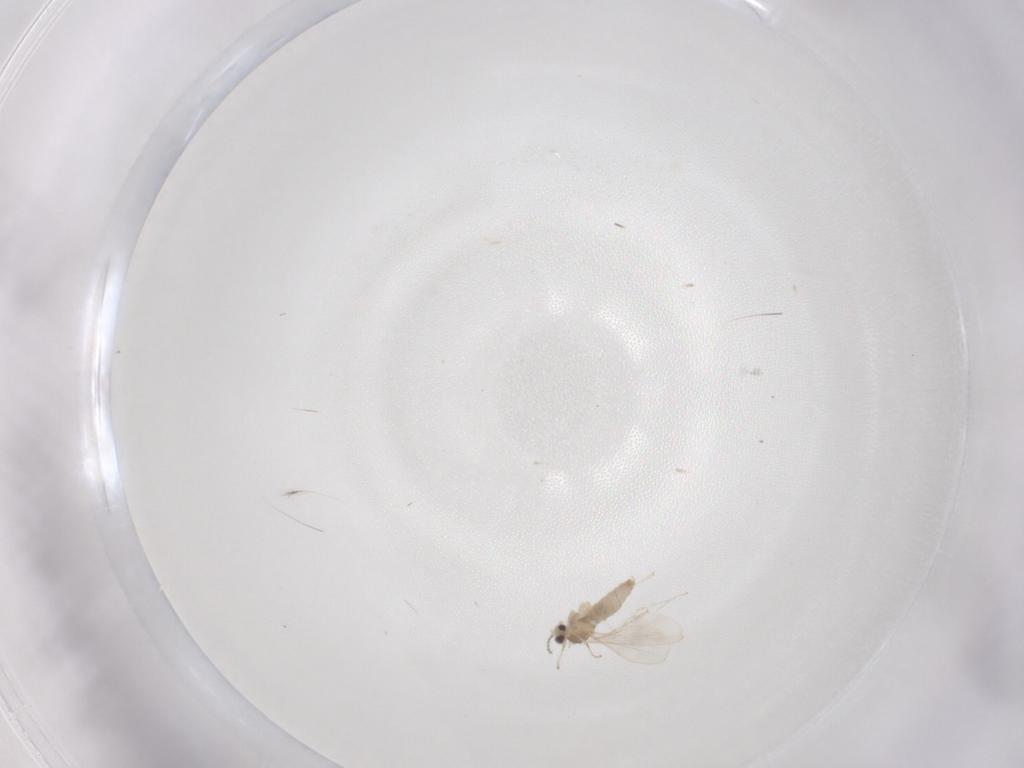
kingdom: Animalia
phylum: Arthropoda
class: Insecta
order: Diptera
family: Cecidomyiidae
